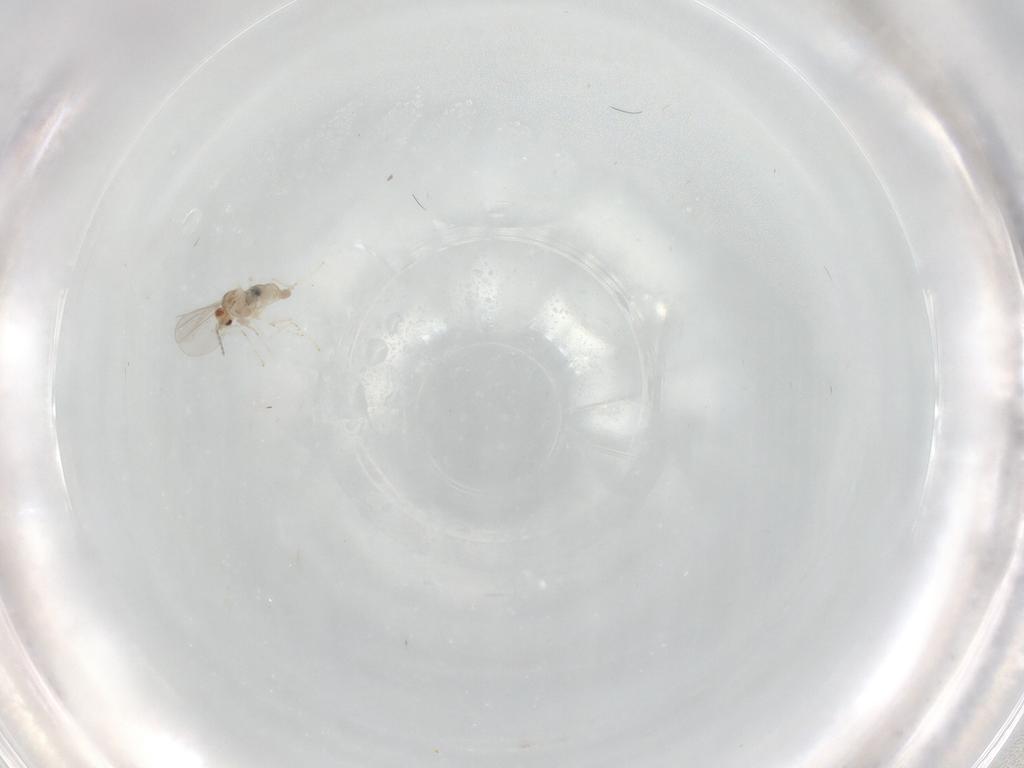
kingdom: Animalia
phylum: Arthropoda
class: Insecta
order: Diptera
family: Cecidomyiidae
